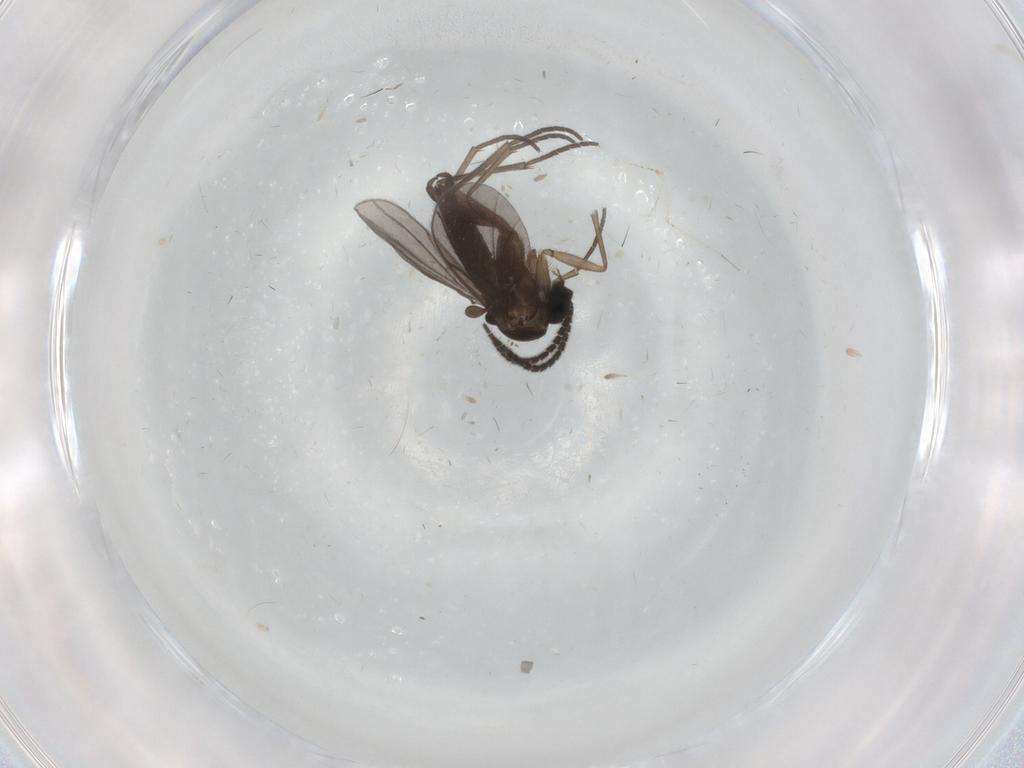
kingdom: Animalia
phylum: Arthropoda
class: Insecta
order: Diptera
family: Sciaridae
